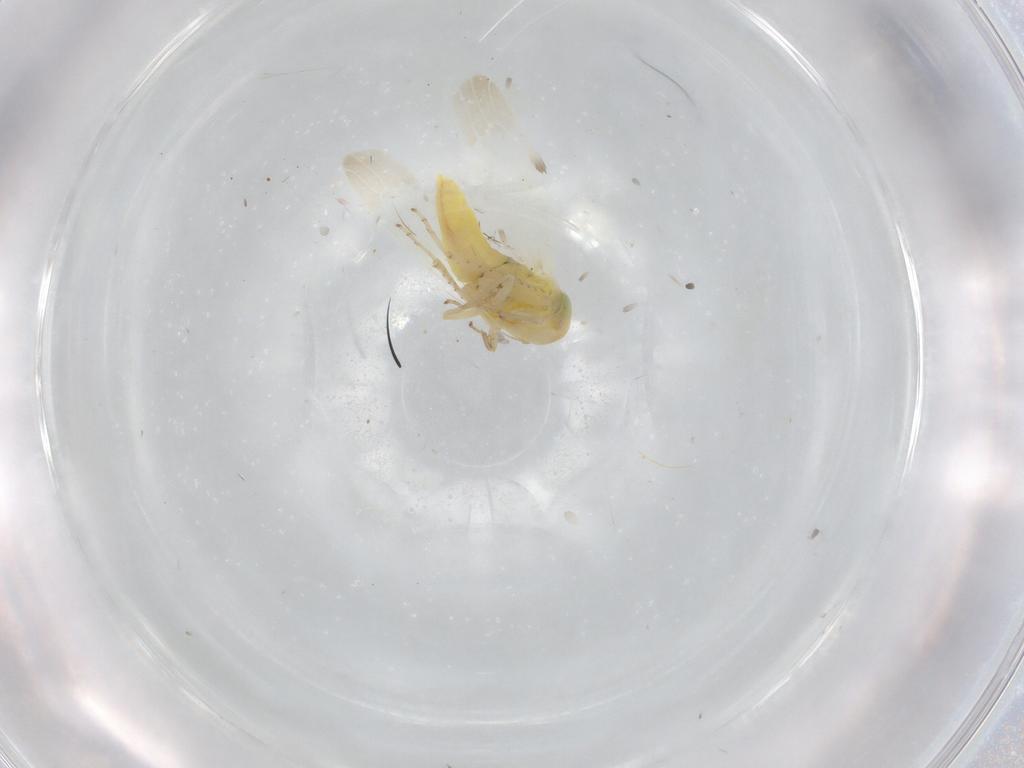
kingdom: Animalia
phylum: Arthropoda
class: Insecta
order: Hemiptera
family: Cicadellidae
